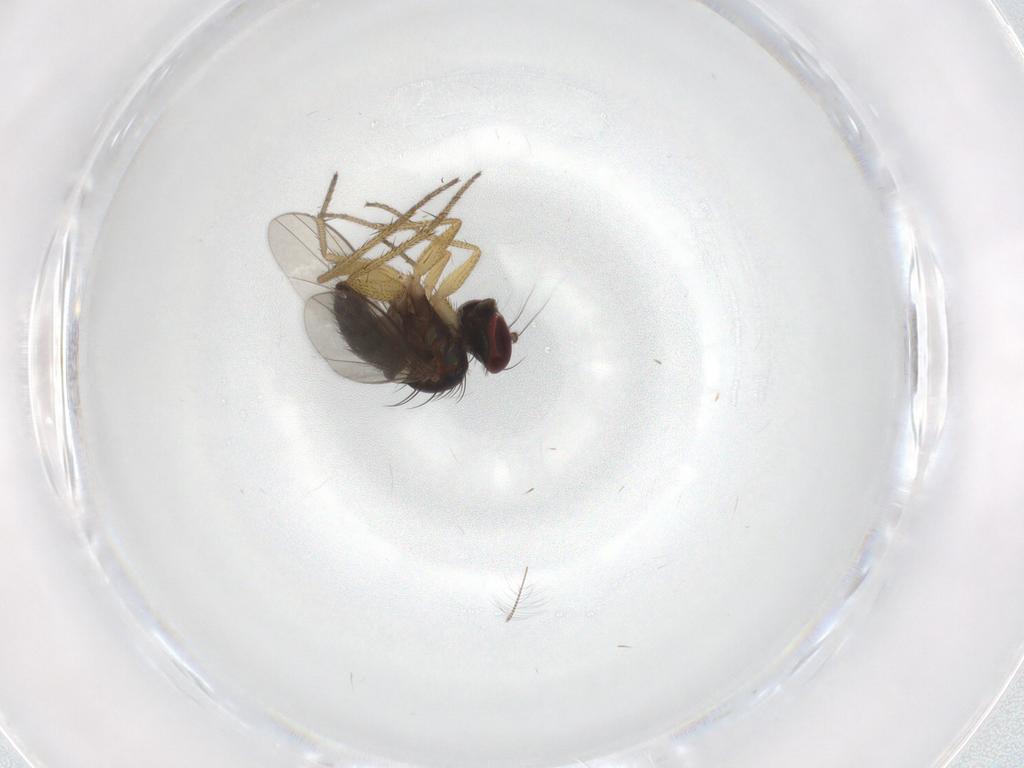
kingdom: Animalia
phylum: Arthropoda
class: Insecta
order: Diptera
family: Dolichopodidae
